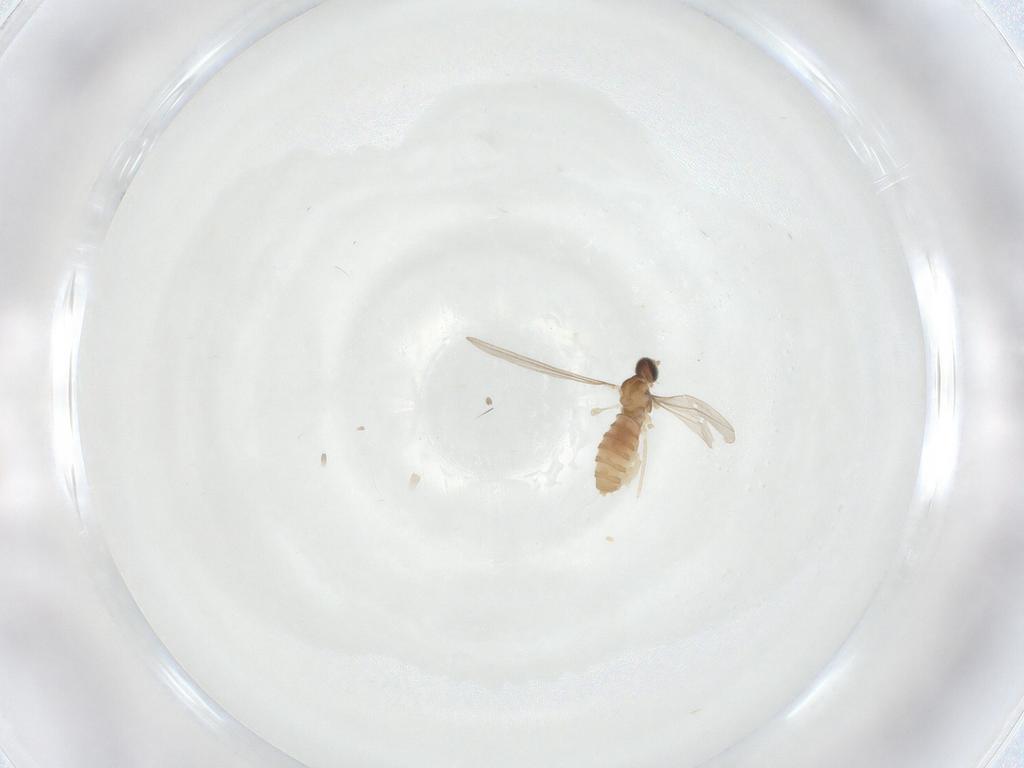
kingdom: Animalia
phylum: Arthropoda
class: Insecta
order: Diptera
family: Cecidomyiidae
